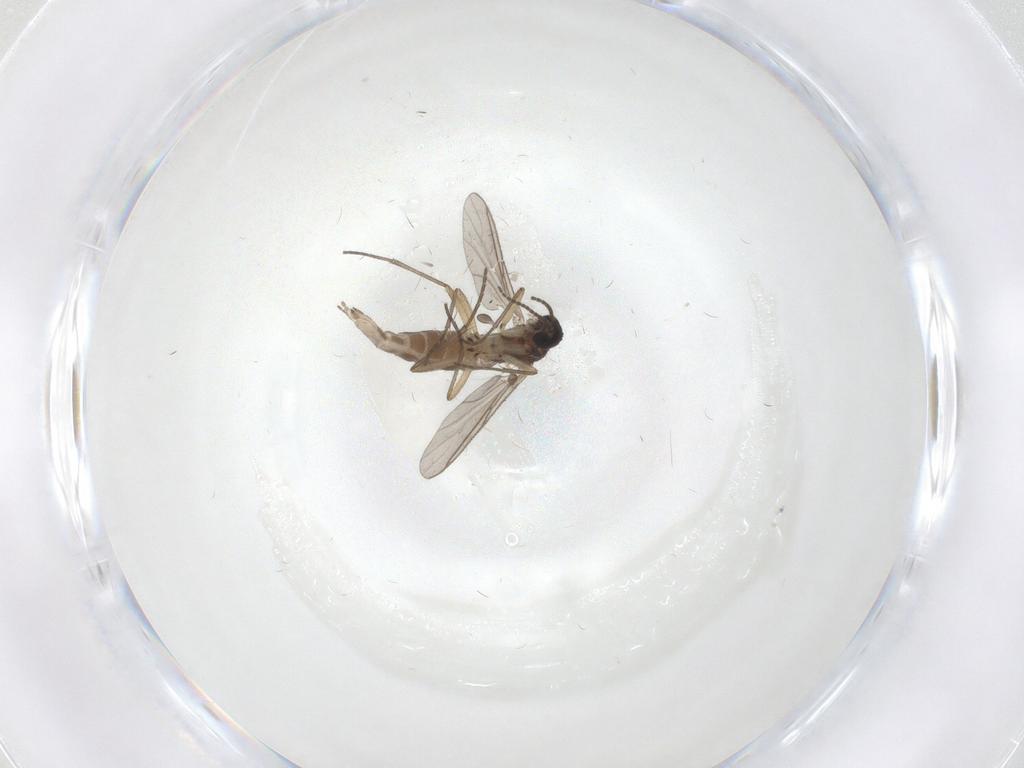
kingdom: Animalia
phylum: Arthropoda
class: Insecta
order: Diptera
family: Sciaridae
